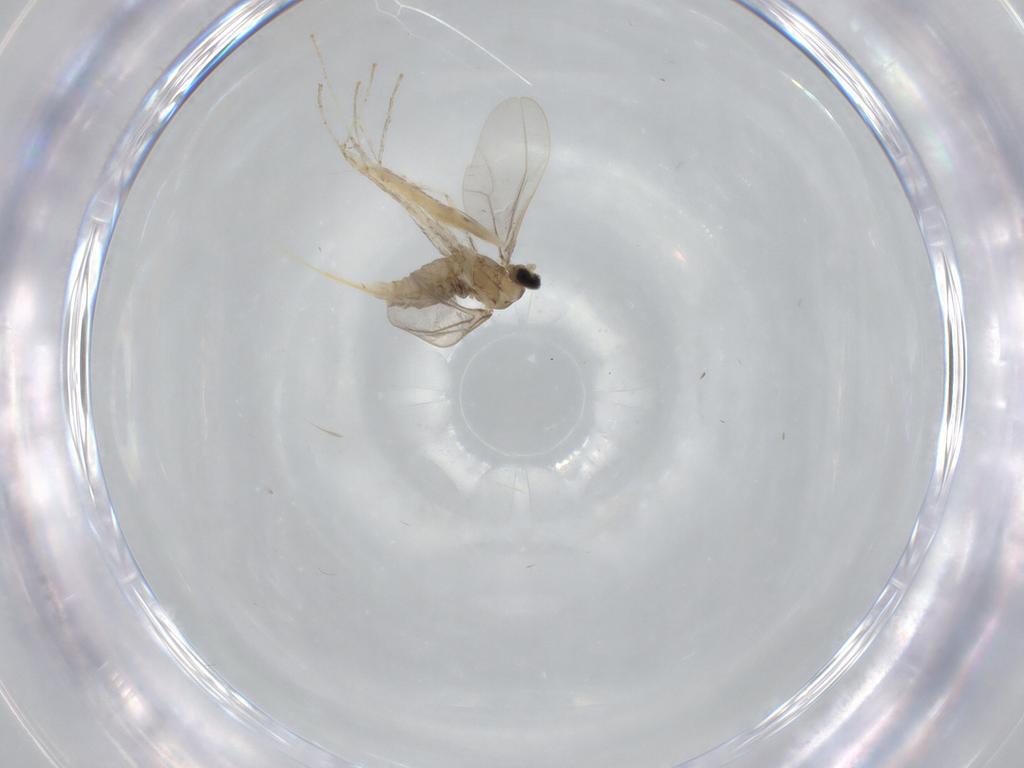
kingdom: Animalia
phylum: Arthropoda
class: Insecta
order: Diptera
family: Cecidomyiidae
